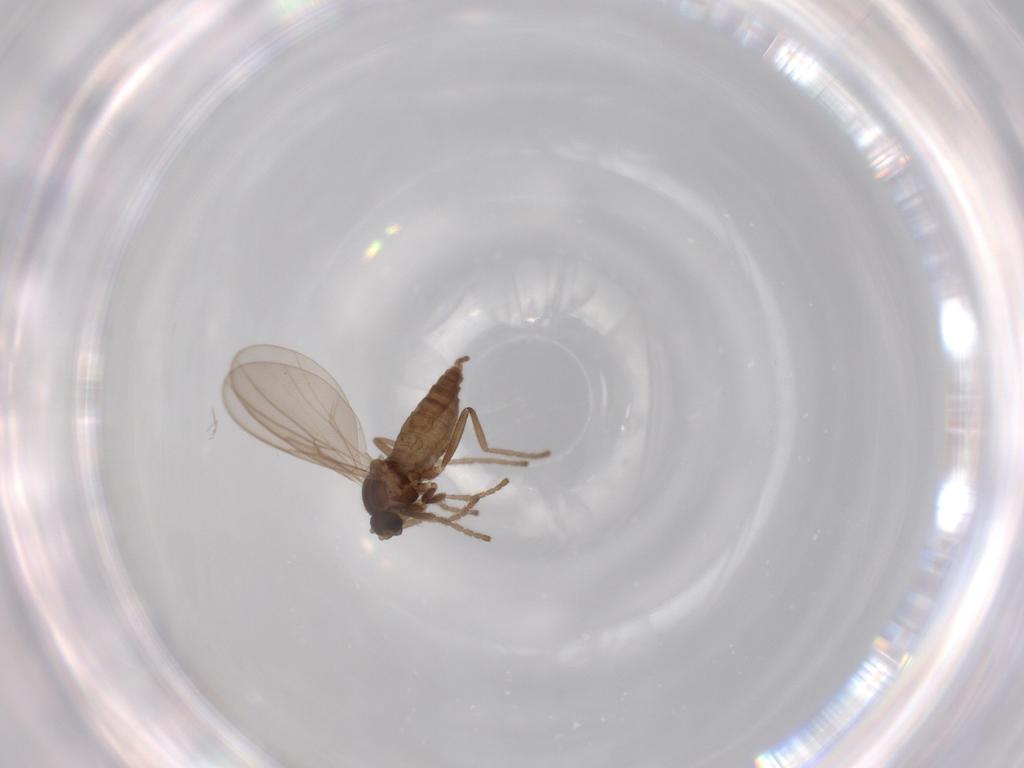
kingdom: Animalia
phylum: Arthropoda
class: Insecta
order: Diptera
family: Cecidomyiidae
